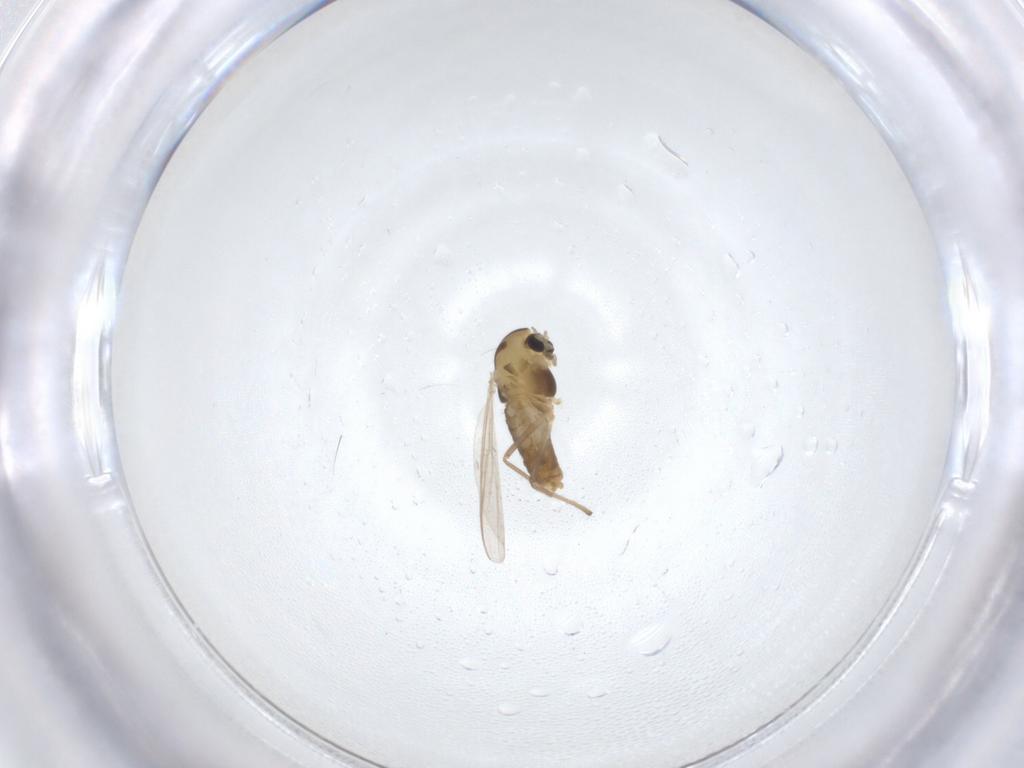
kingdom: Animalia
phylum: Arthropoda
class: Insecta
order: Diptera
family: Chironomidae
